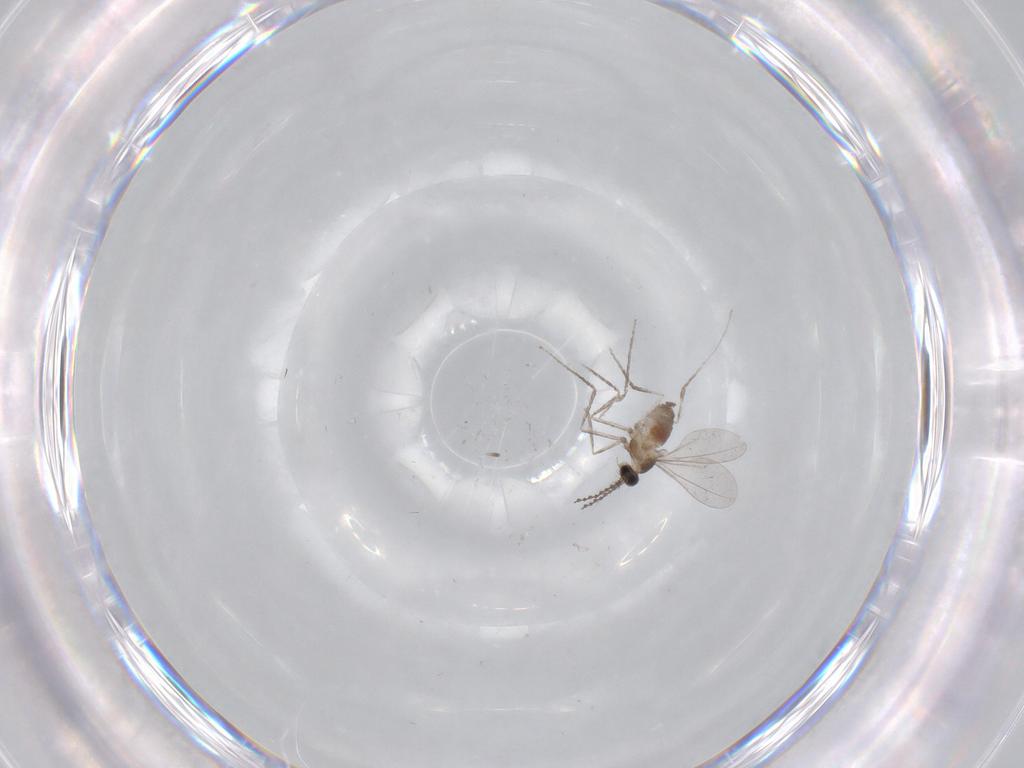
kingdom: Animalia
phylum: Arthropoda
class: Insecta
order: Diptera
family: Cecidomyiidae
